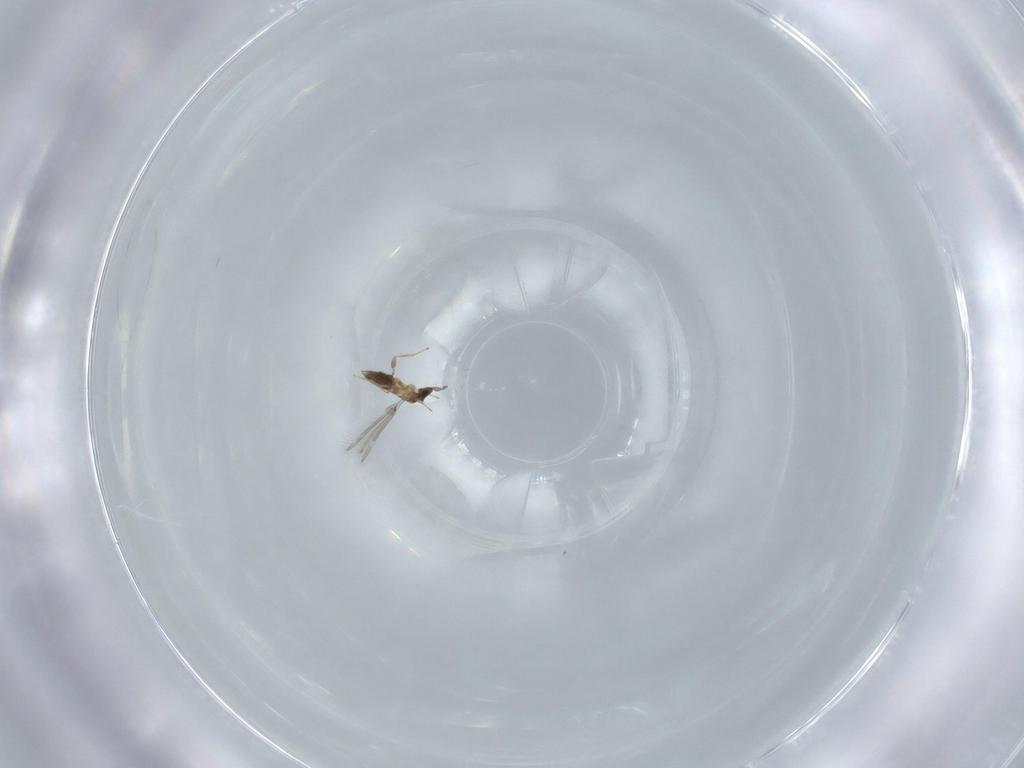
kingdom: Animalia
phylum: Arthropoda
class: Insecta
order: Hymenoptera
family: Mymaridae
